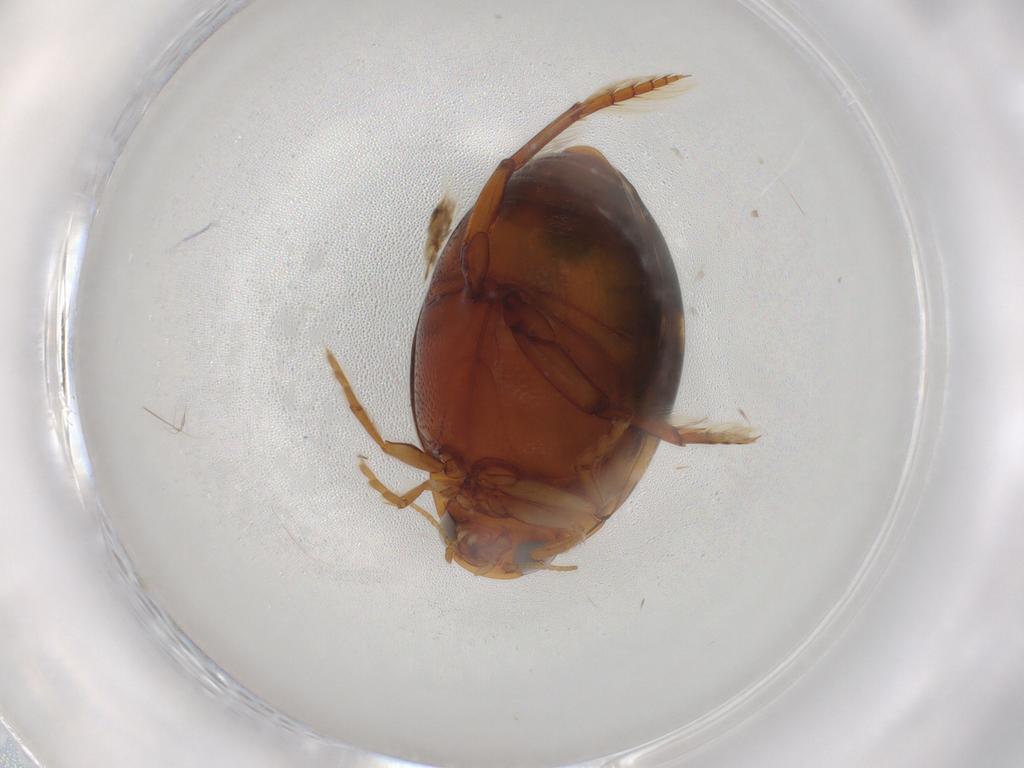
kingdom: Animalia
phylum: Arthropoda
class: Insecta
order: Coleoptera
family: Dytiscidae
